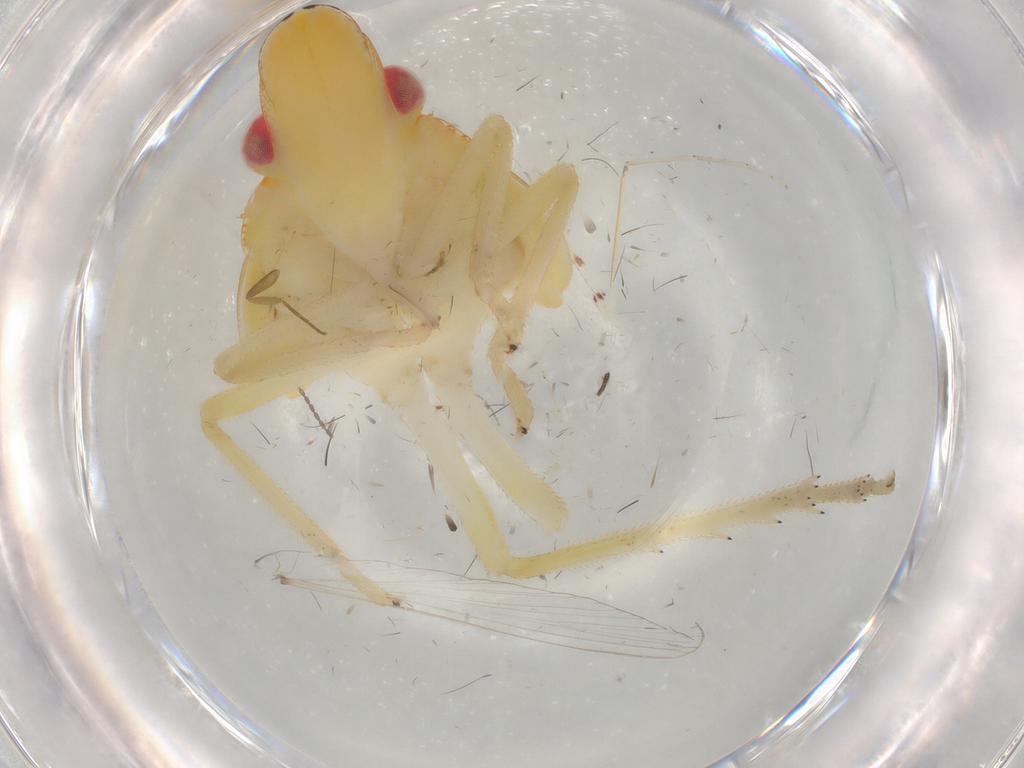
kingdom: Animalia
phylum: Arthropoda
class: Insecta
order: Hemiptera
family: Tropiduchidae
